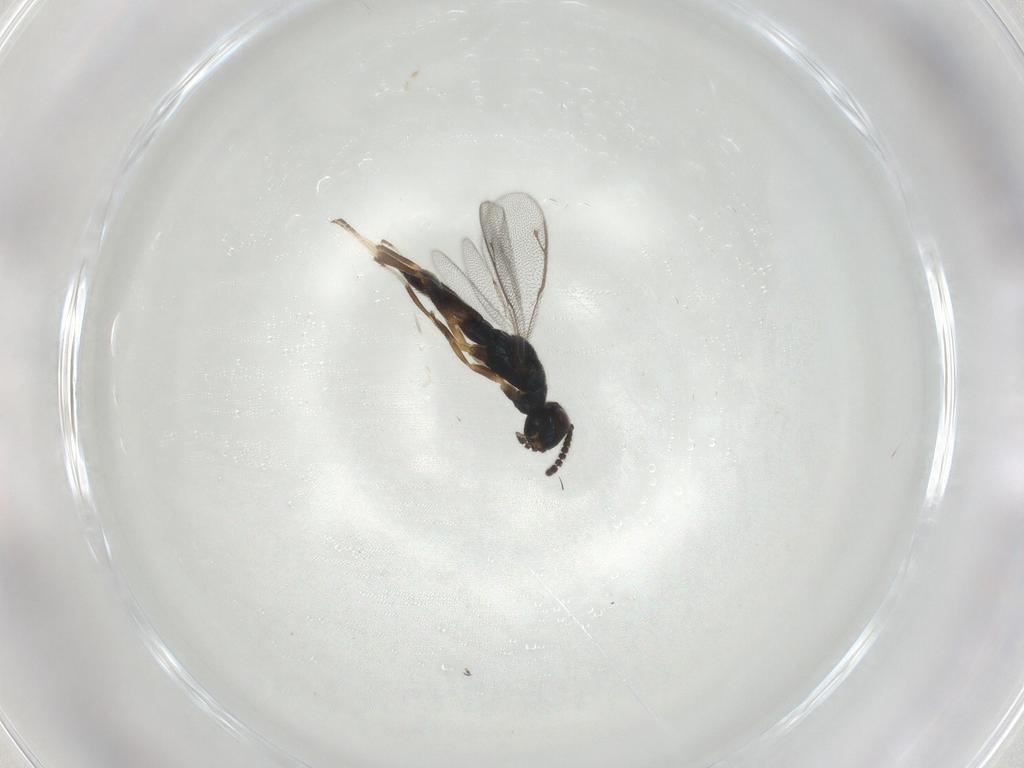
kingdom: Animalia
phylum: Arthropoda
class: Insecta
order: Hymenoptera
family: Cleonyminae
